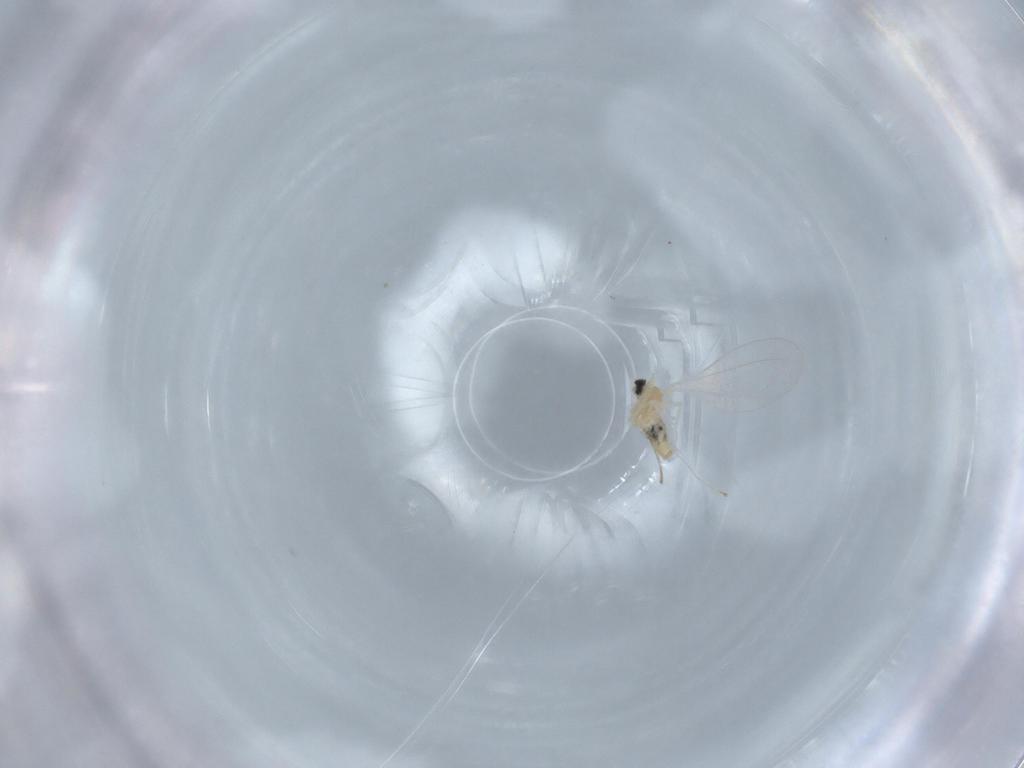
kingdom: Animalia
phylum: Arthropoda
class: Insecta
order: Diptera
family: Cecidomyiidae
